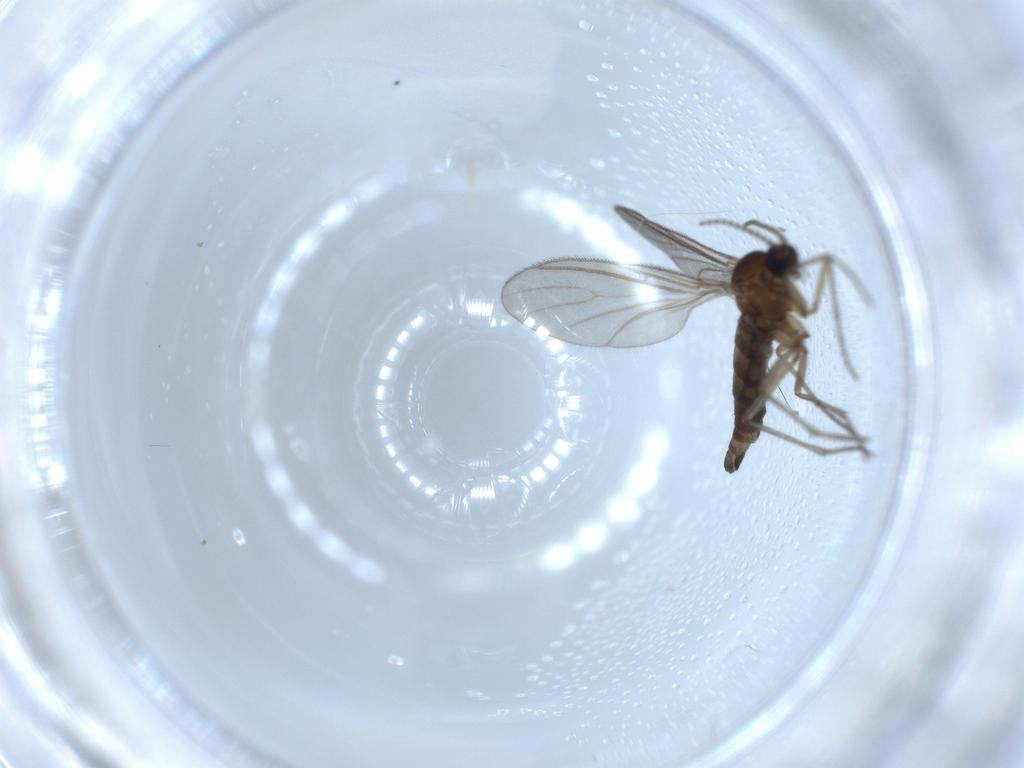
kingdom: Animalia
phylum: Arthropoda
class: Insecta
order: Diptera
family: Sciaridae
